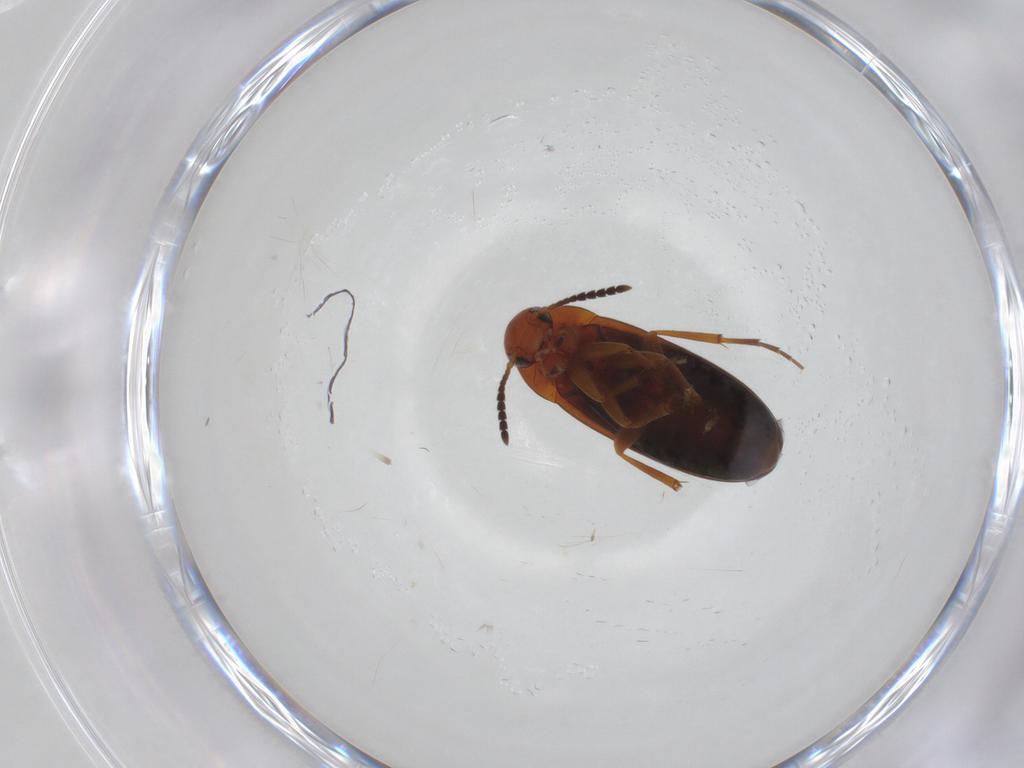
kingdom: Animalia
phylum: Arthropoda
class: Insecta
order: Coleoptera
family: Scraptiidae
